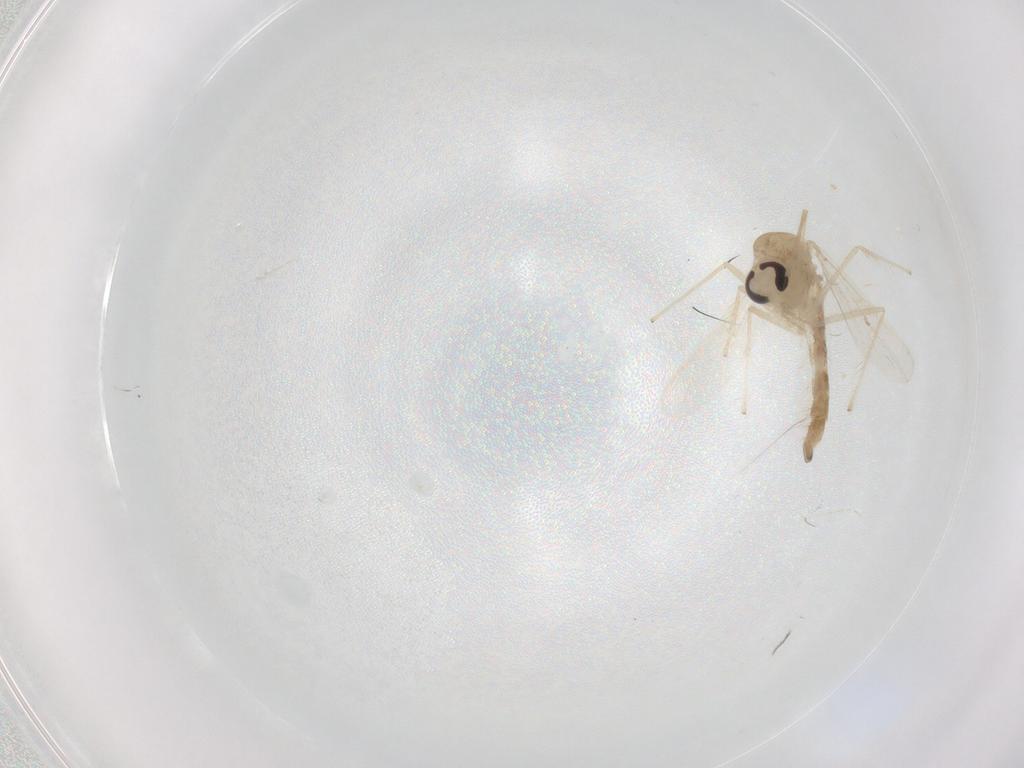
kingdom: Animalia
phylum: Arthropoda
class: Insecta
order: Diptera
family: Chironomidae
